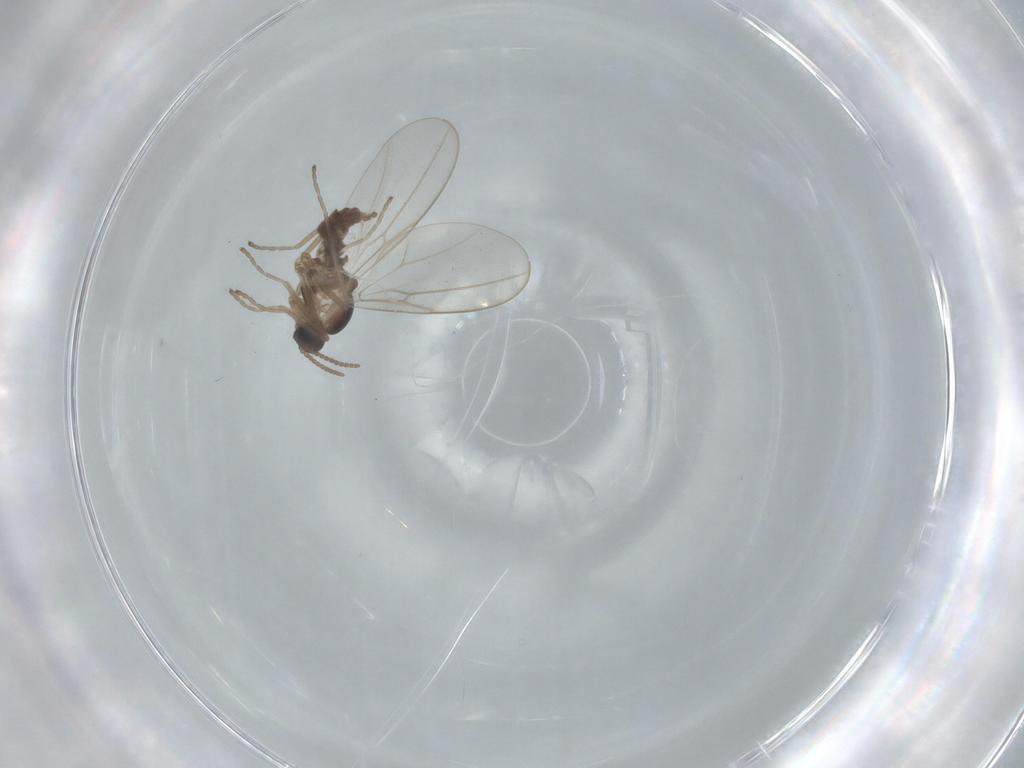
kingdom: Animalia
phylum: Arthropoda
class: Insecta
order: Diptera
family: Cecidomyiidae
